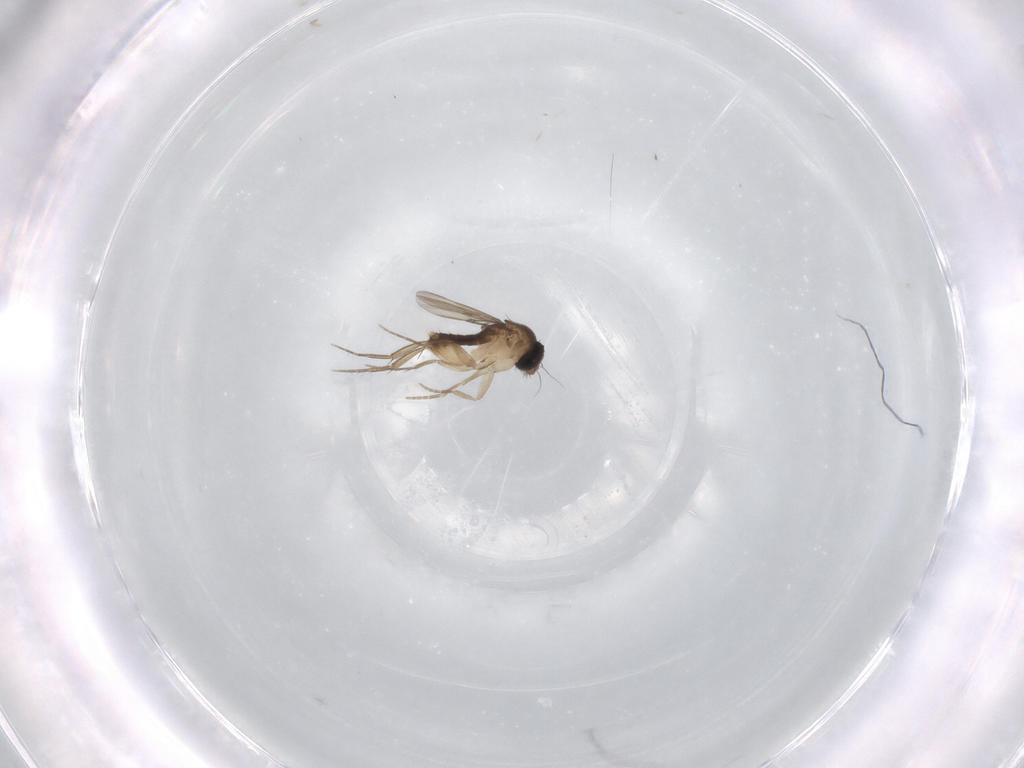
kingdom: Animalia
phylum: Arthropoda
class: Insecta
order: Diptera
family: Phoridae
